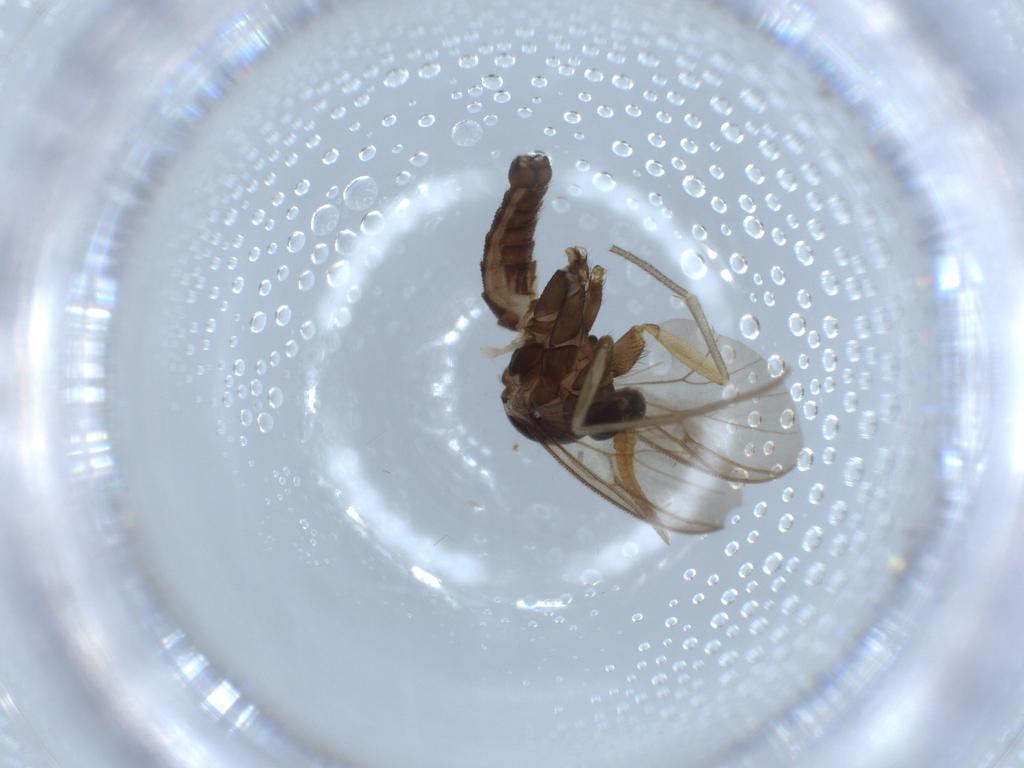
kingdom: Animalia
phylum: Arthropoda
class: Insecta
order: Diptera
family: Mycetophilidae
